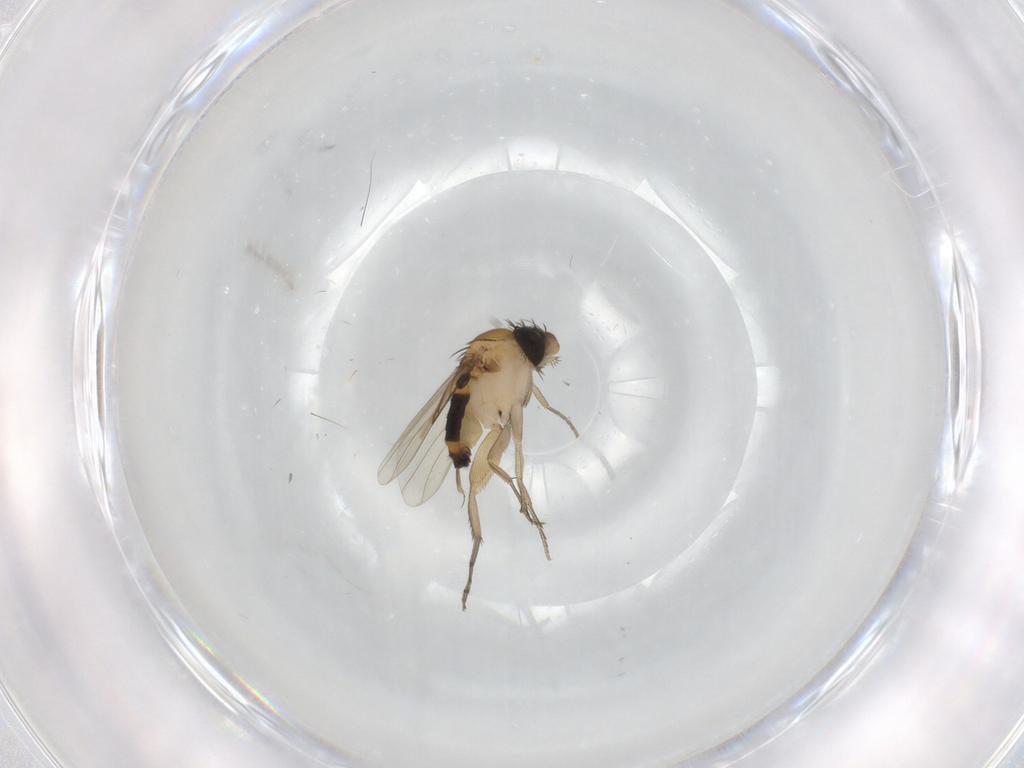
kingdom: Animalia
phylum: Arthropoda
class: Insecta
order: Diptera
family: Phoridae
